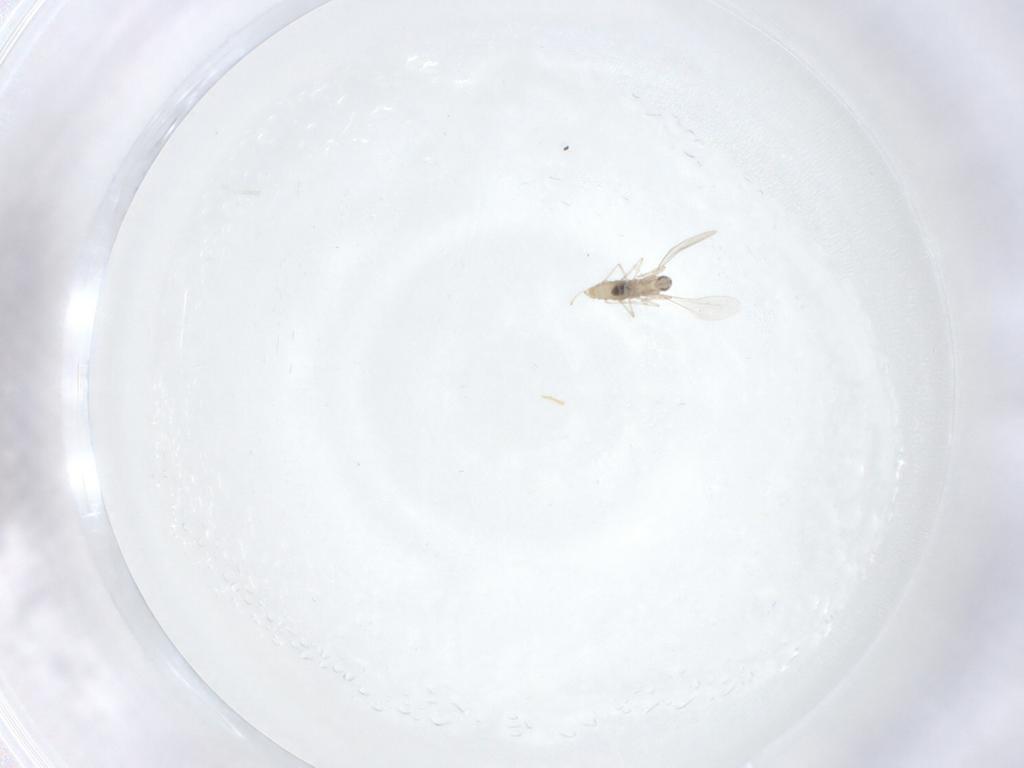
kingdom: Animalia
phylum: Arthropoda
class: Insecta
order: Diptera
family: Cecidomyiidae
